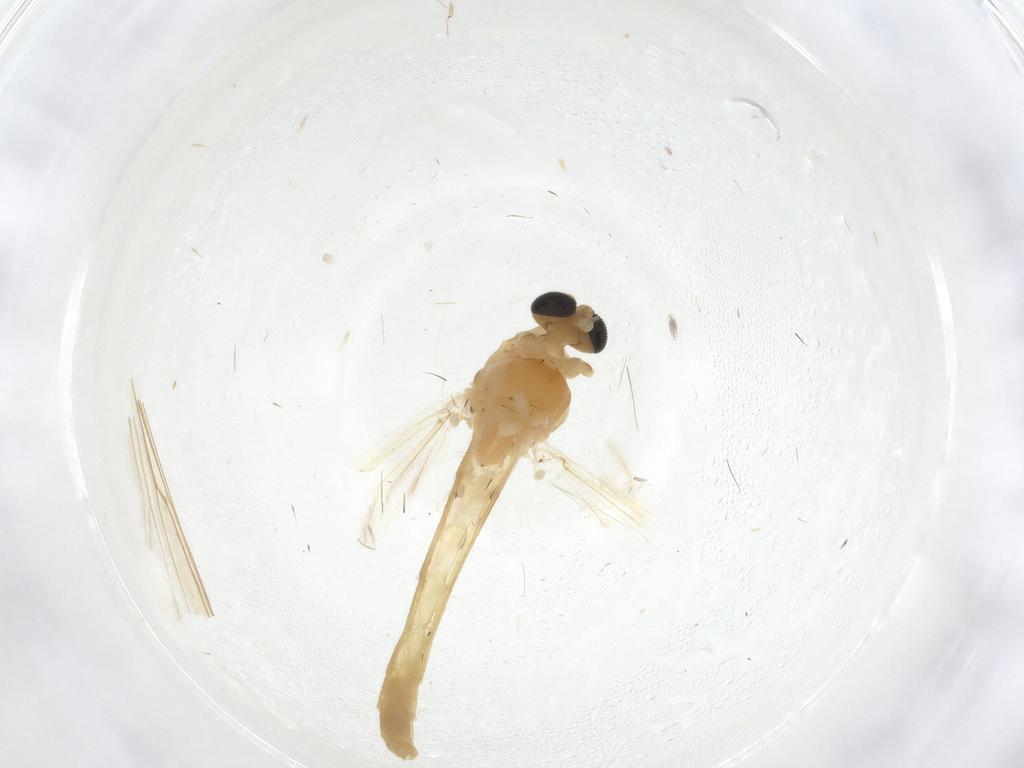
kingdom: Animalia
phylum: Arthropoda
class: Insecta
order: Diptera
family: Chironomidae
